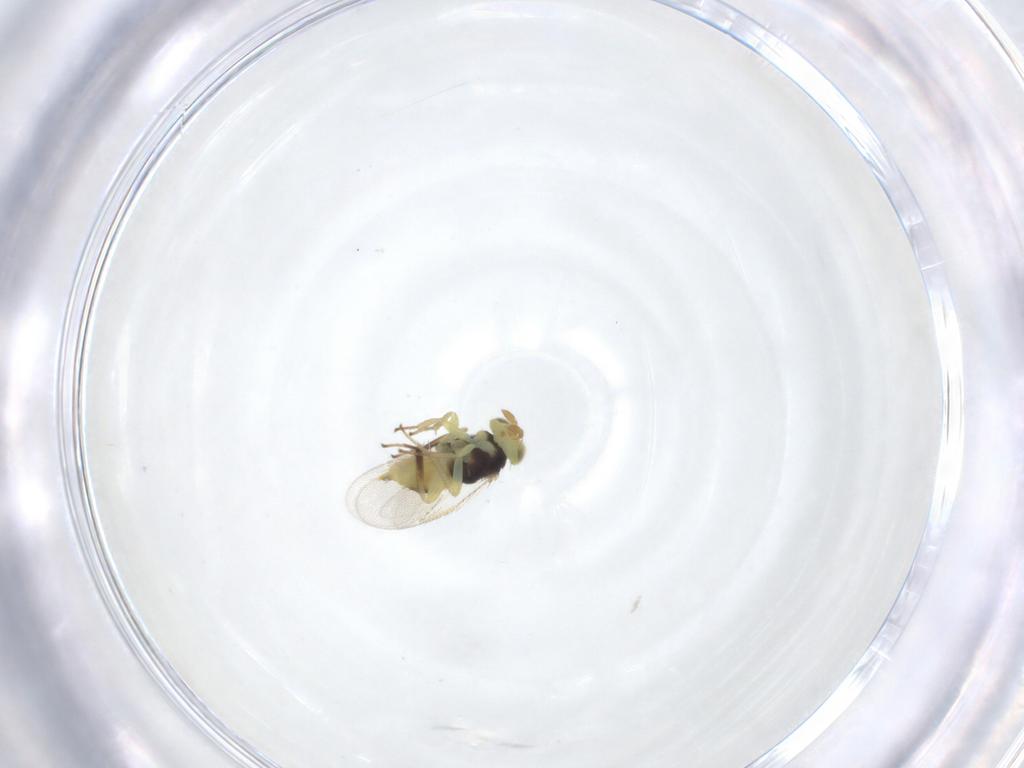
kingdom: Animalia
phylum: Arthropoda
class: Insecta
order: Hymenoptera
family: Aphelinidae
